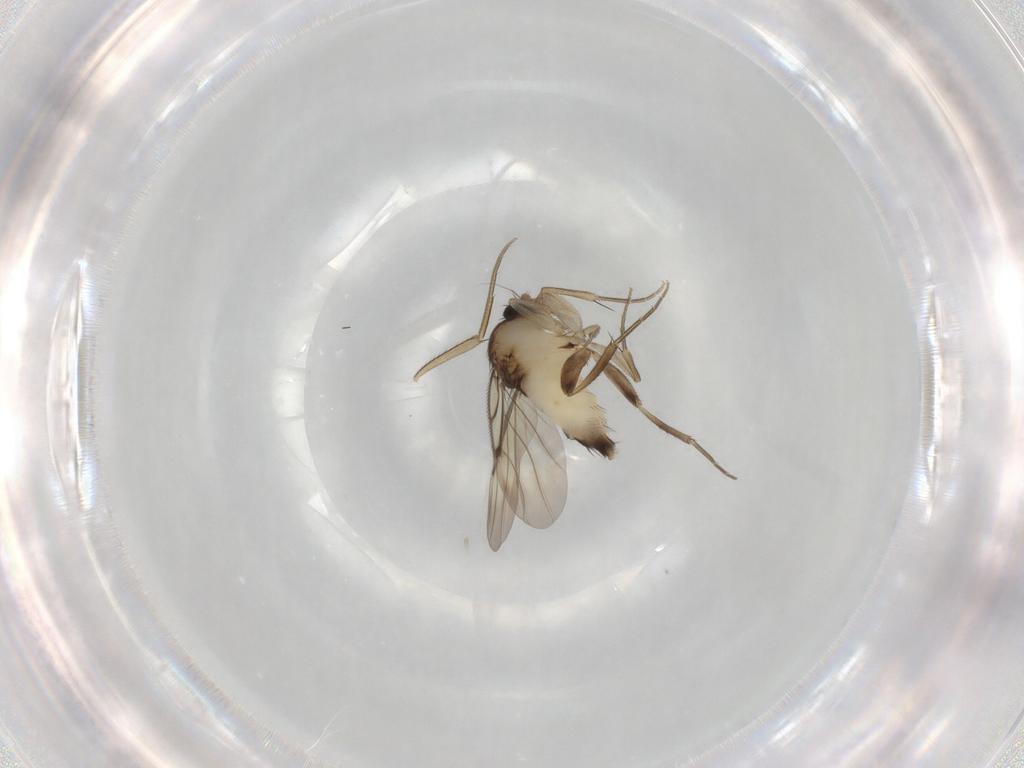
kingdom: Animalia
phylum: Arthropoda
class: Insecta
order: Diptera
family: Phoridae
